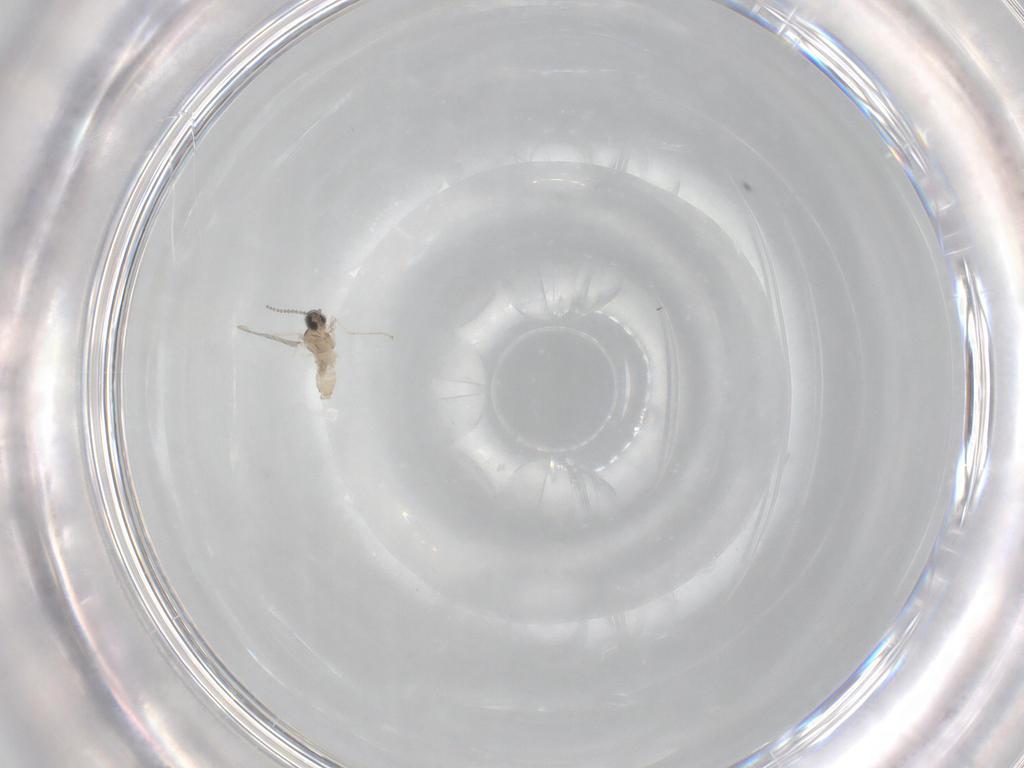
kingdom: Animalia
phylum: Arthropoda
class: Insecta
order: Diptera
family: Cecidomyiidae
